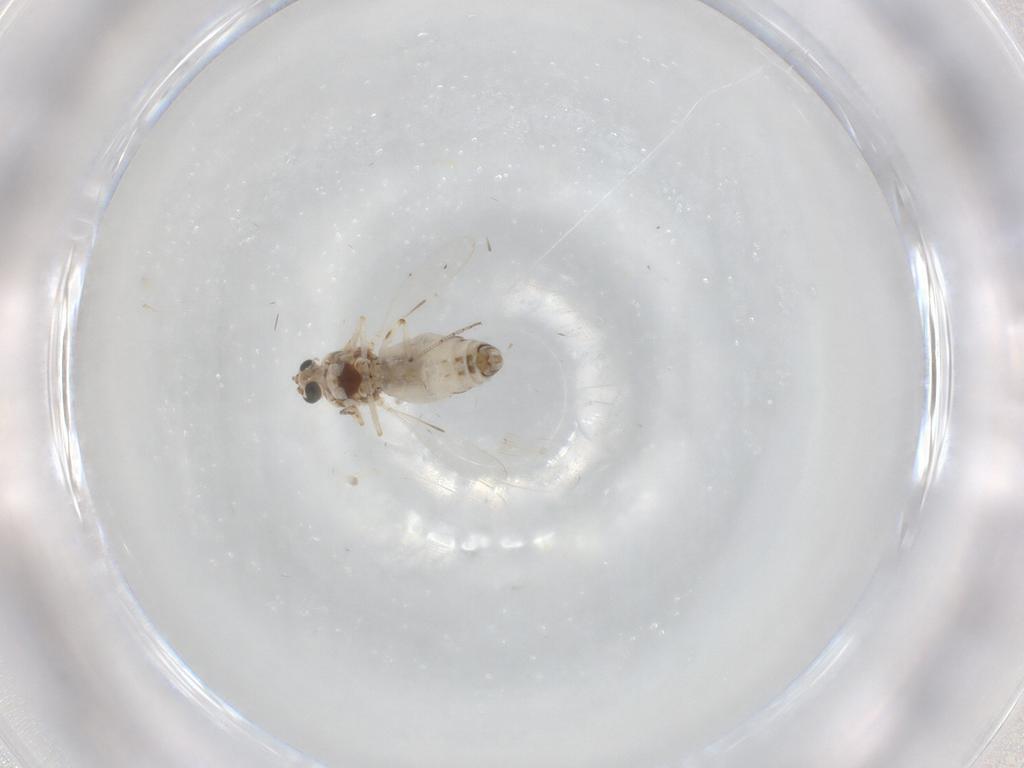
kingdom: Animalia
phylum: Arthropoda
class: Insecta
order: Diptera
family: Ceratopogonidae
